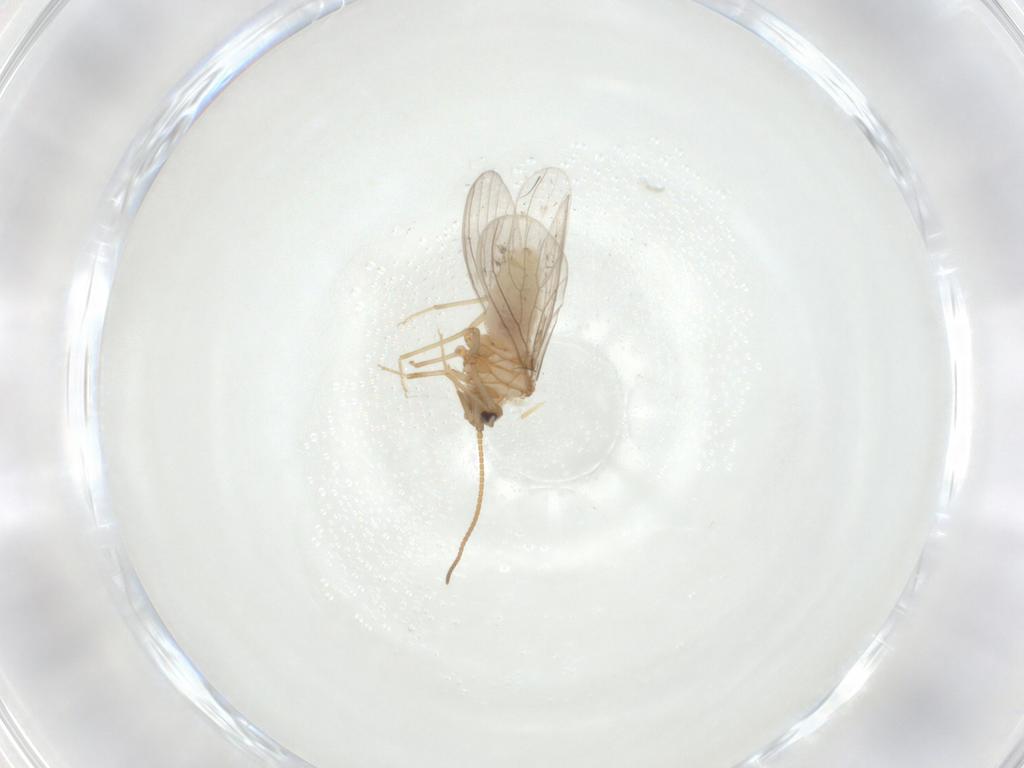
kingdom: Animalia
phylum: Arthropoda
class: Insecta
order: Neuroptera
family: Coniopterygidae
